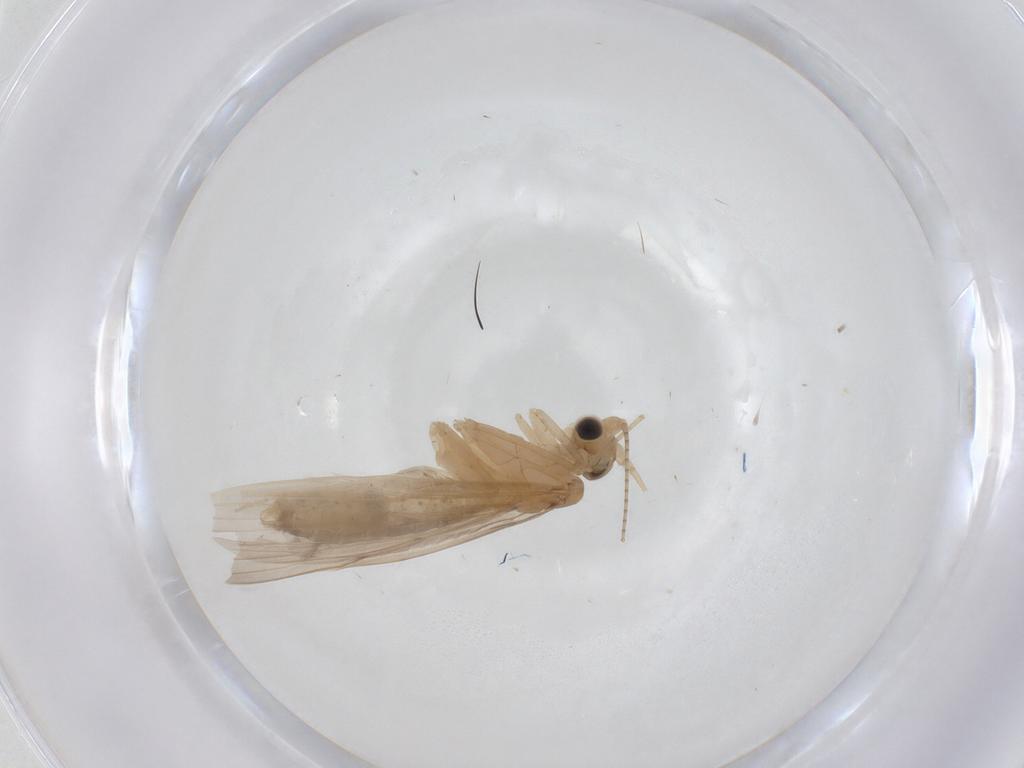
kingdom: Animalia
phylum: Arthropoda
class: Insecta
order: Trichoptera
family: Leptoceridae
